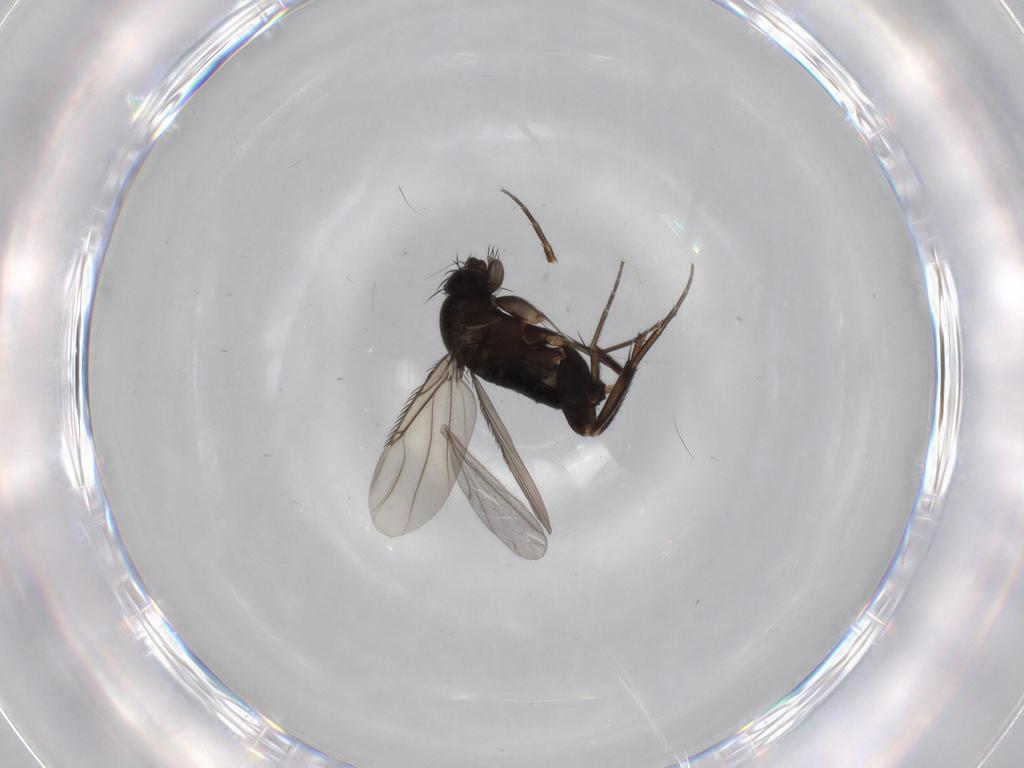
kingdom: Animalia
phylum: Arthropoda
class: Insecta
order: Diptera
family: Phoridae
